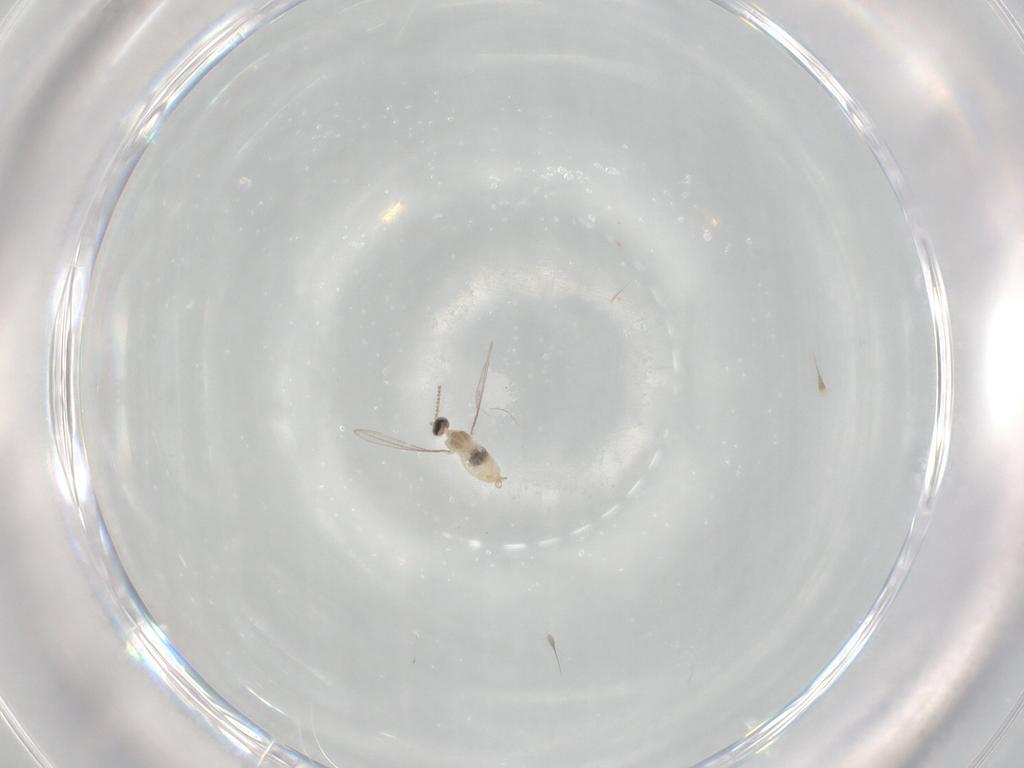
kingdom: Animalia
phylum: Arthropoda
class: Insecta
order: Diptera
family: Cecidomyiidae
